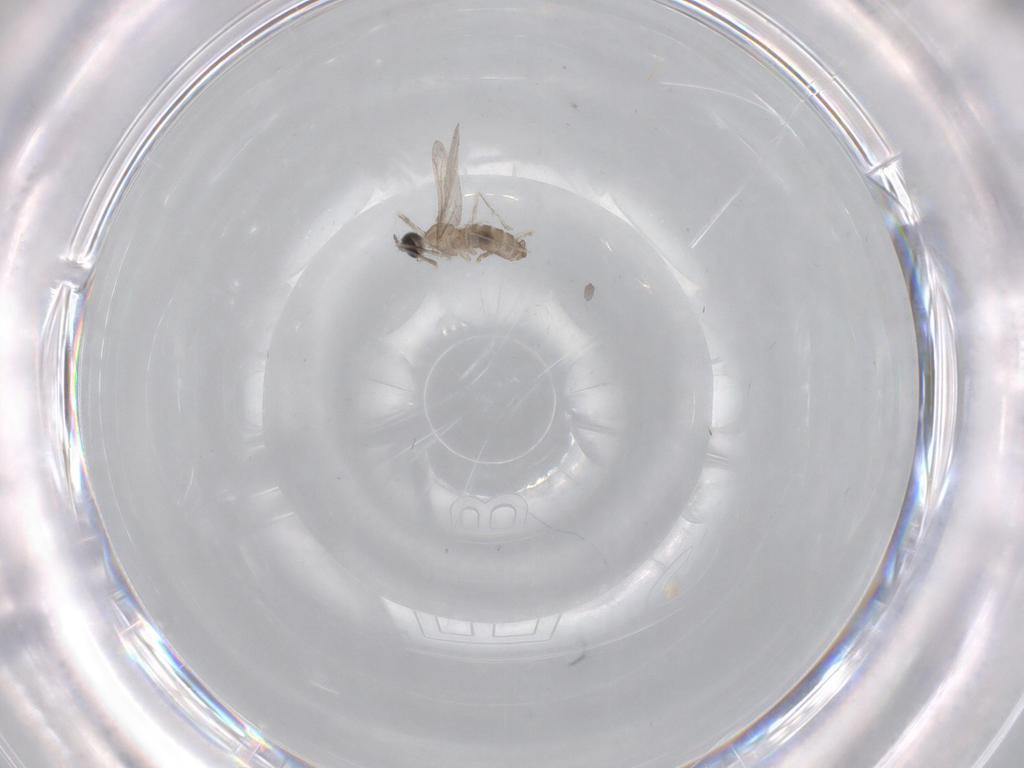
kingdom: Animalia
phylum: Arthropoda
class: Insecta
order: Diptera
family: Cecidomyiidae
